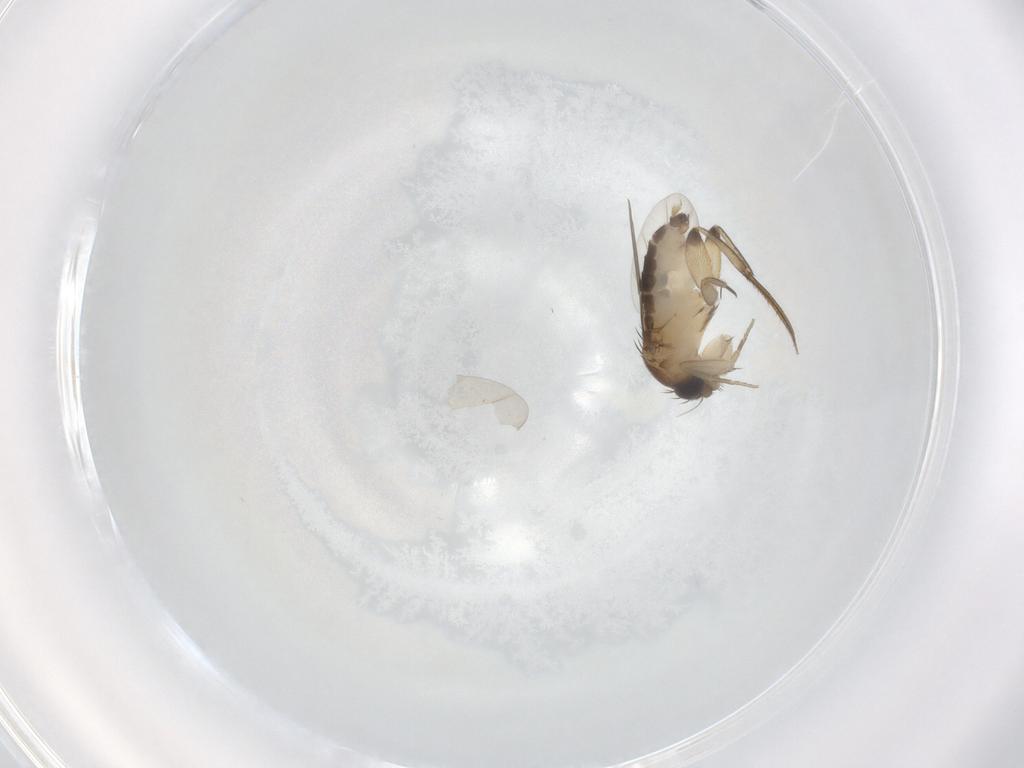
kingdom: Animalia
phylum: Arthropoda
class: Insecta
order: Diptera
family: Phoridae
